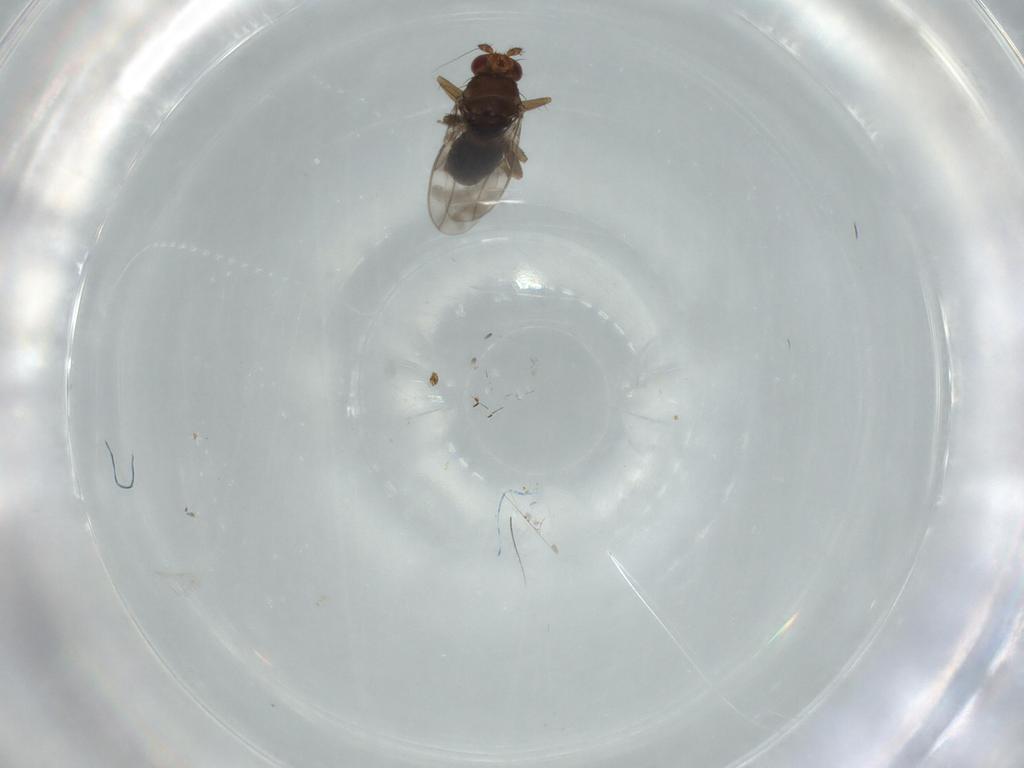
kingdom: Animalia
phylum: Arthropoda
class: Insecta
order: Diptera
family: Sphaeroceridae
